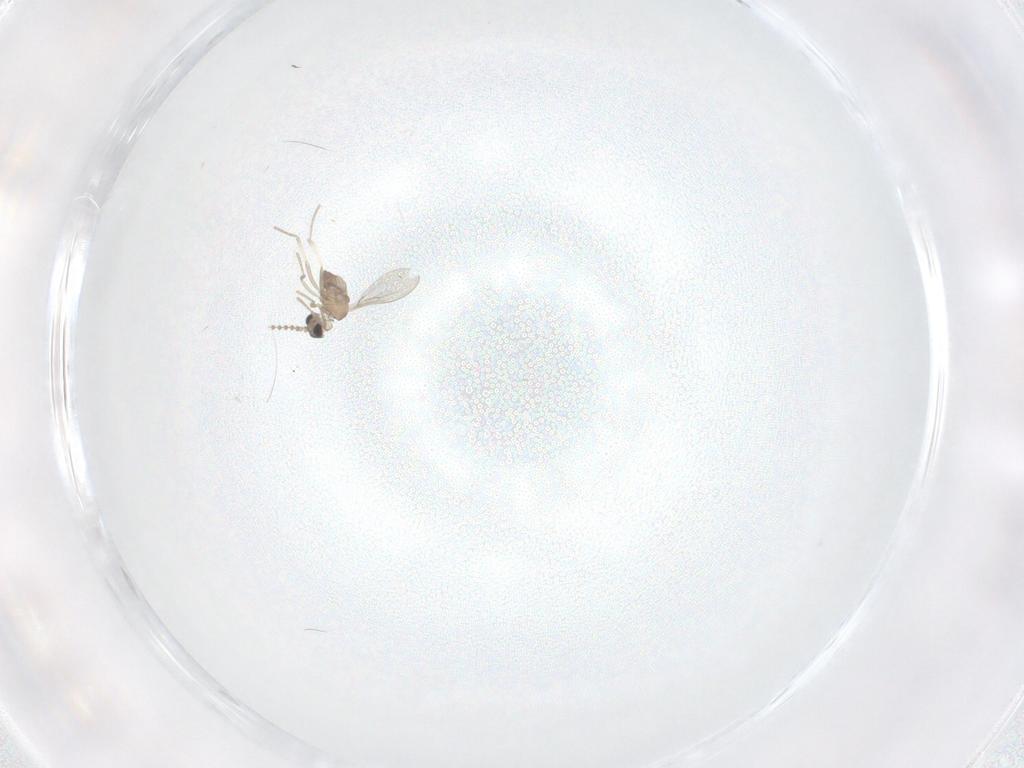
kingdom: Animalia
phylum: Arthropoda
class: Insecta
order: Diptera
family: Cecidomyiidae
